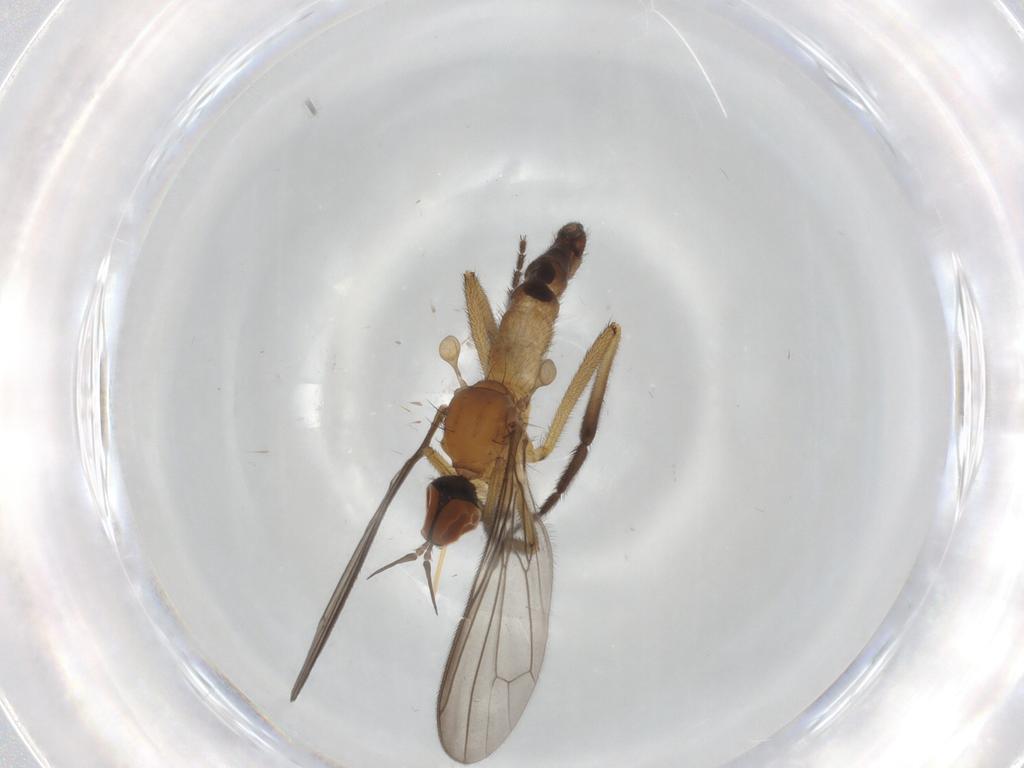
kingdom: Animalia
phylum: Arthropoda
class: Insecta
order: Diptera
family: Empididae
